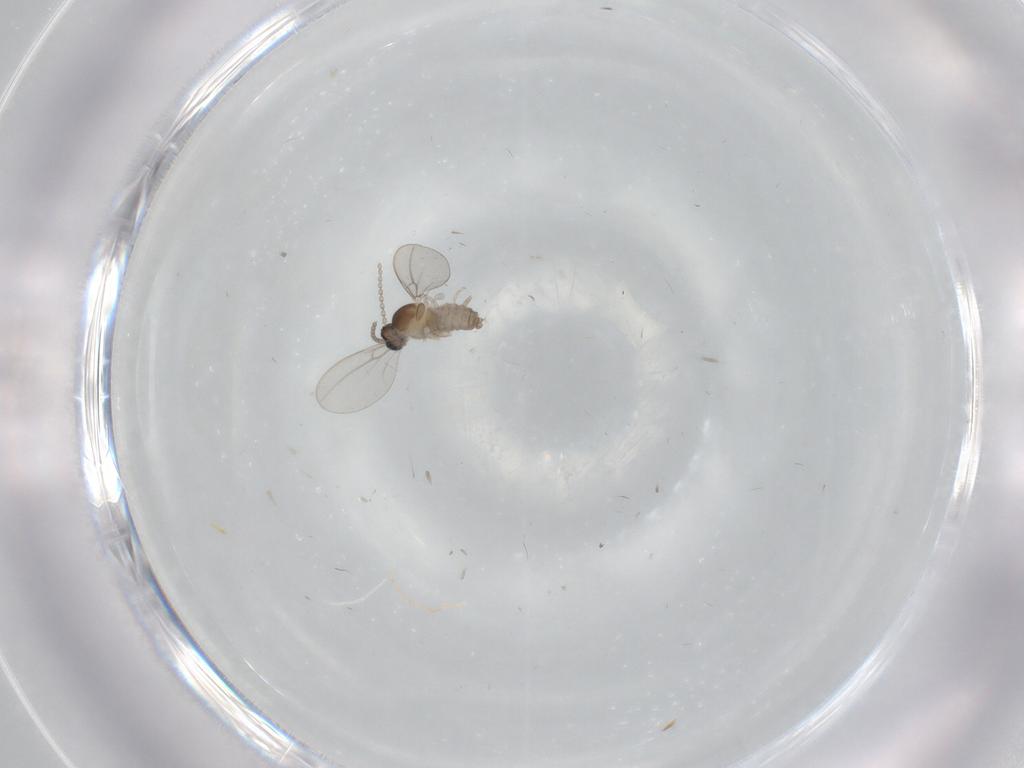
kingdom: Animalia
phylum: Arthropoda
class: Insecta
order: Diptera
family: Cecidomyiidae
